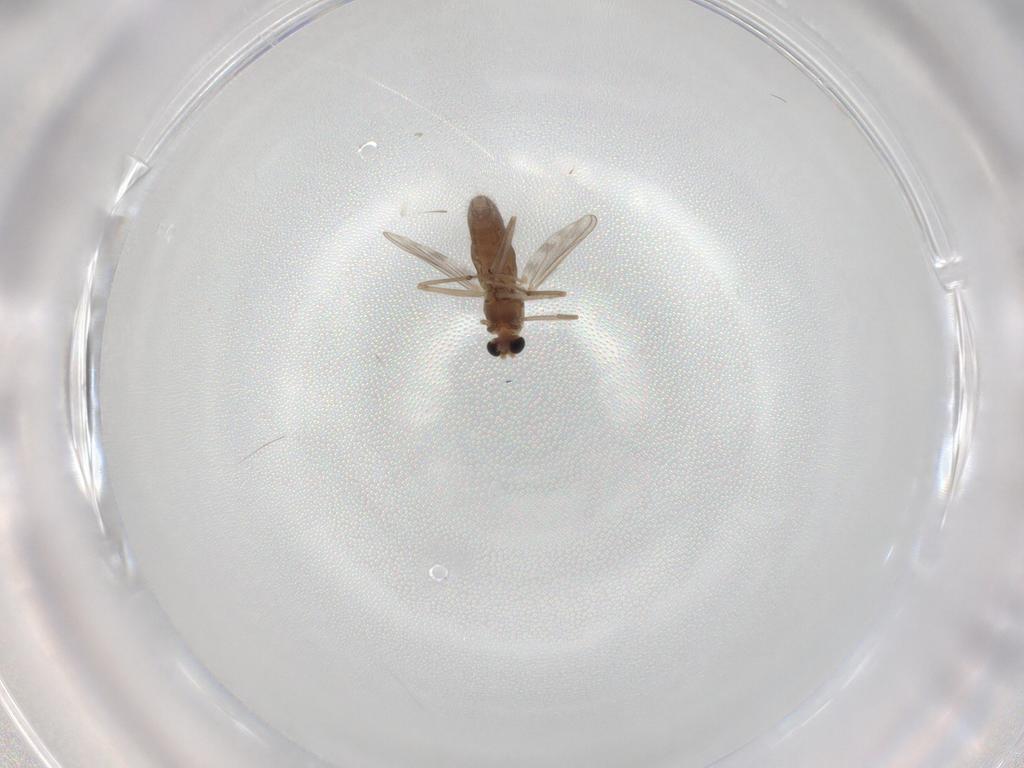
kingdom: Animalia
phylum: Arthropoda
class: Insecta
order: Diptera
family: Chironomidae
